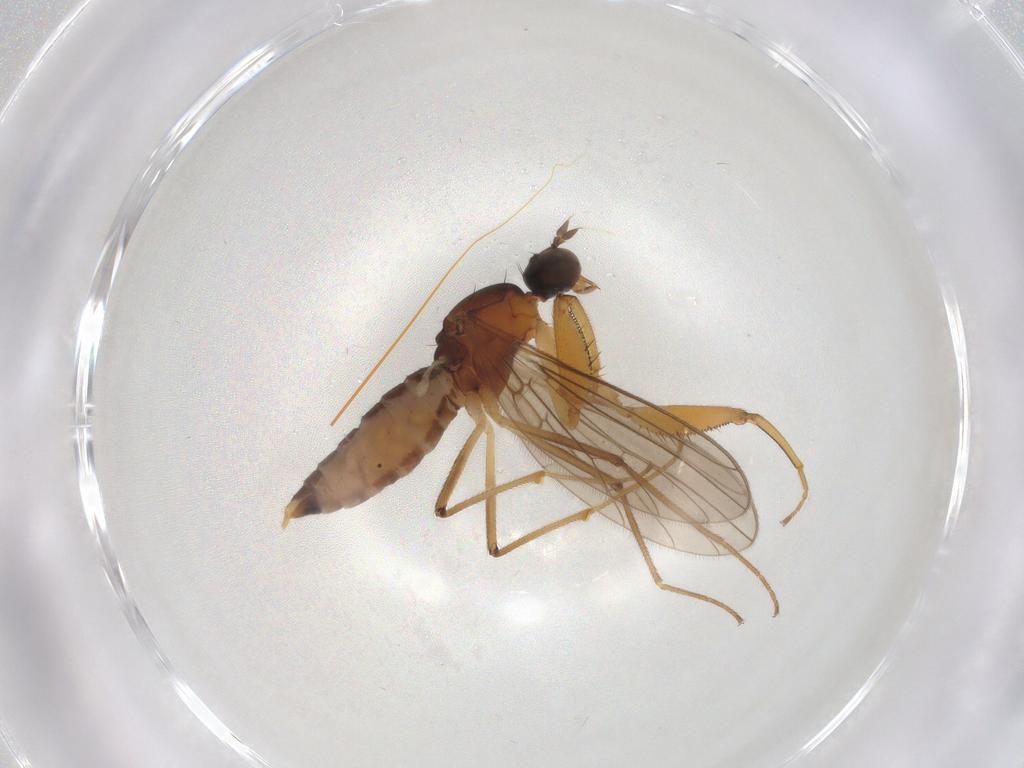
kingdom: Animalia
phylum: Arthropoda
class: Insecta
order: Diptera
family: Empididae
